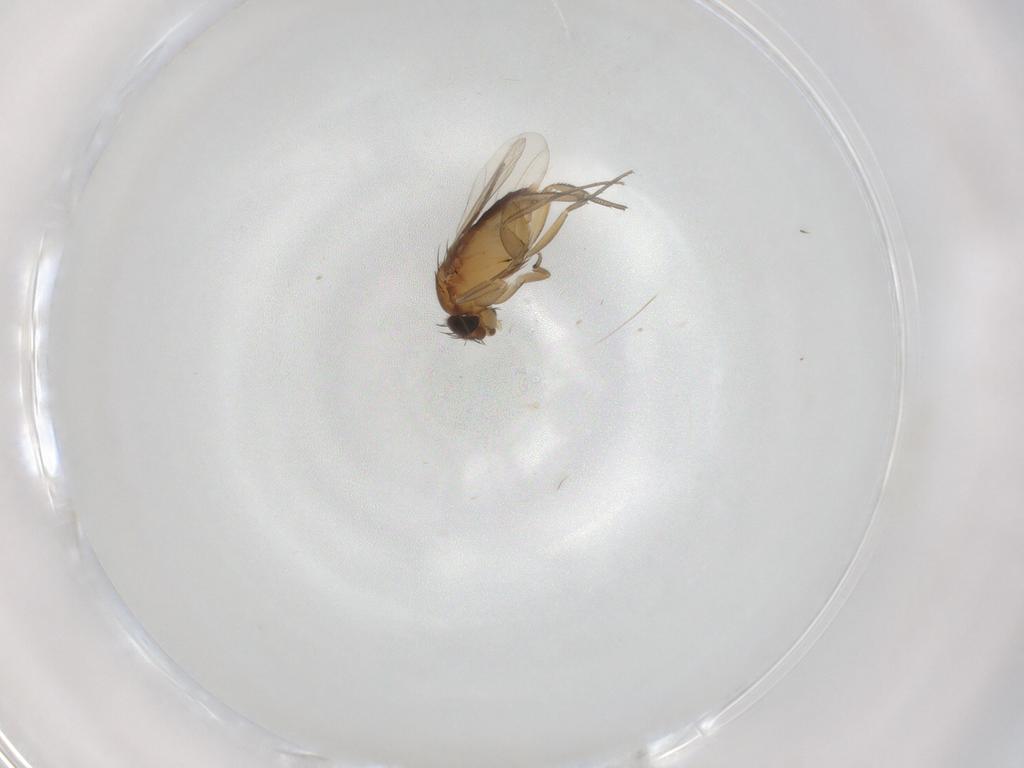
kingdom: Animalia
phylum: Arthropoda
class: Insecta
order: Diptera
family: Phoridae
